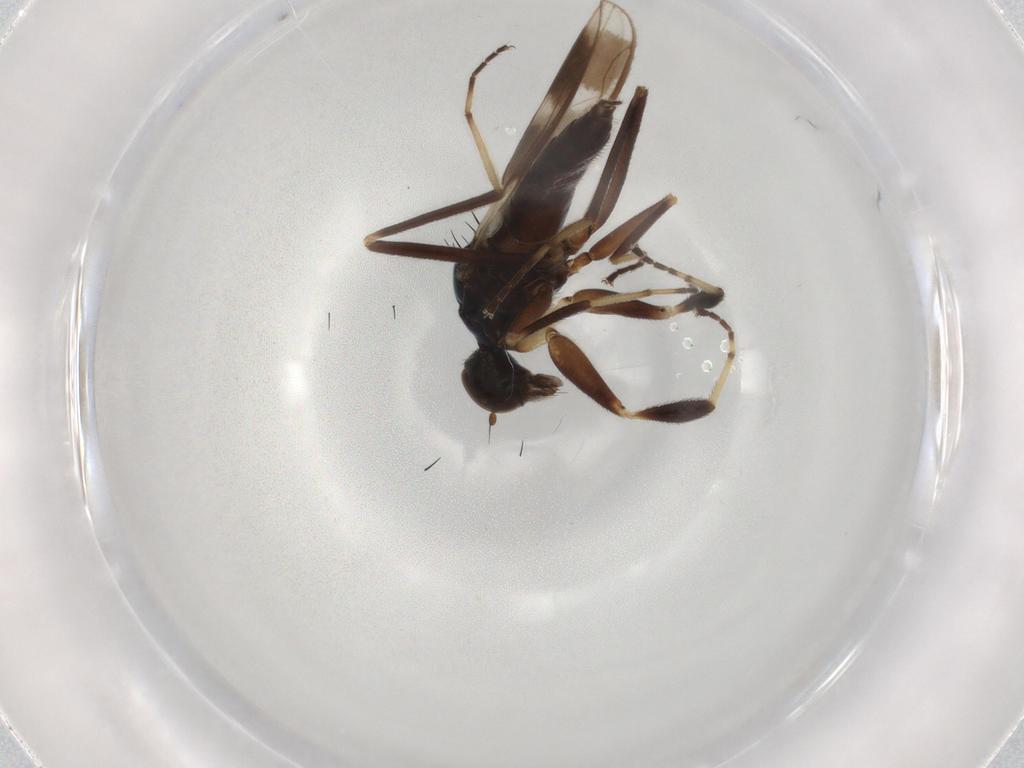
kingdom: Animalia
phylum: Arthropoda
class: Insecta
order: Diptera
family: Hybotidae
